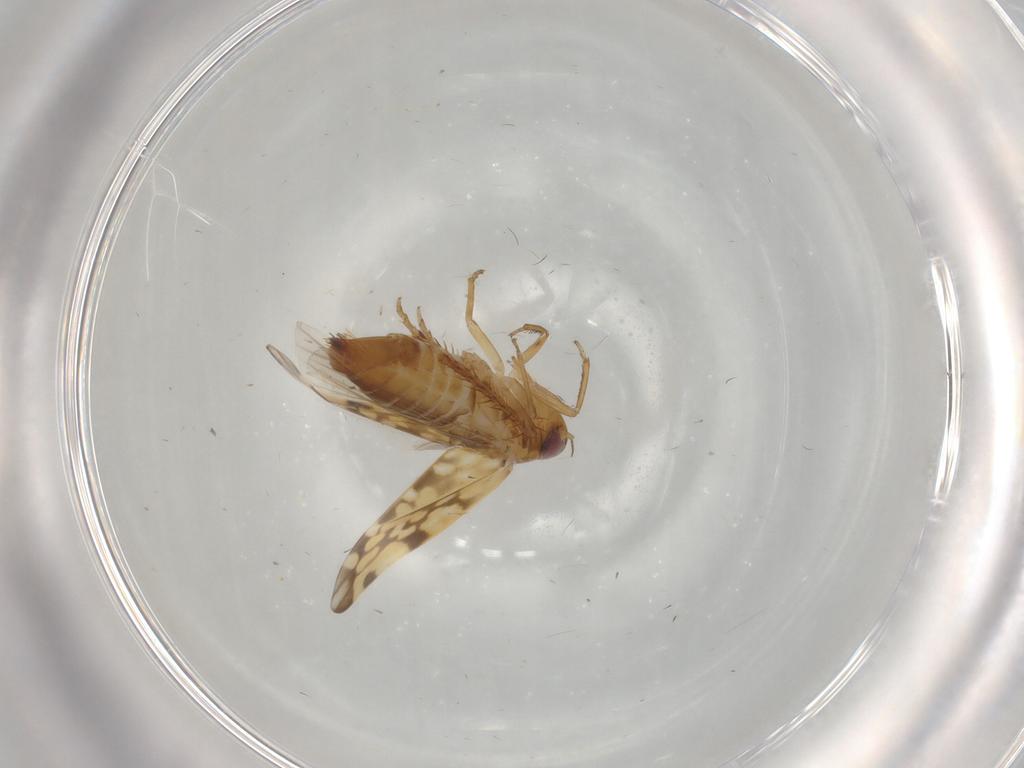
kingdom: Animalia
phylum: Arthropoda
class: Insecta
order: Hemiptera
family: Cicadellidae
